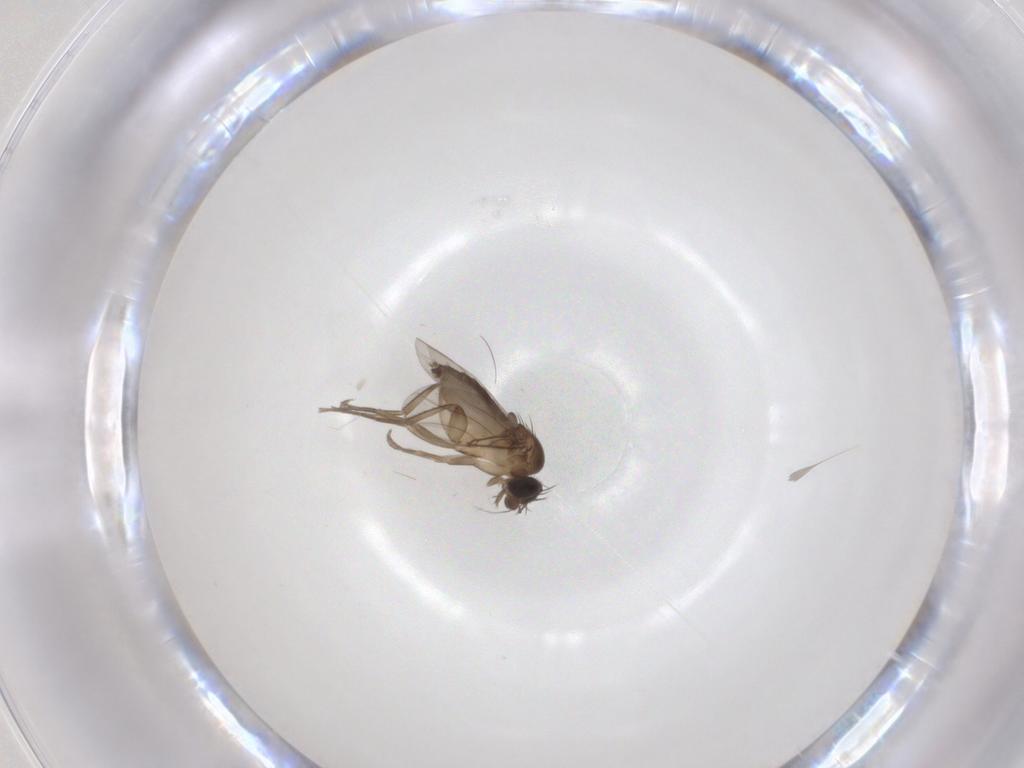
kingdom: Animalia
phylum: Arthropoda
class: Insecta
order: Diptera
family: Phoridae
